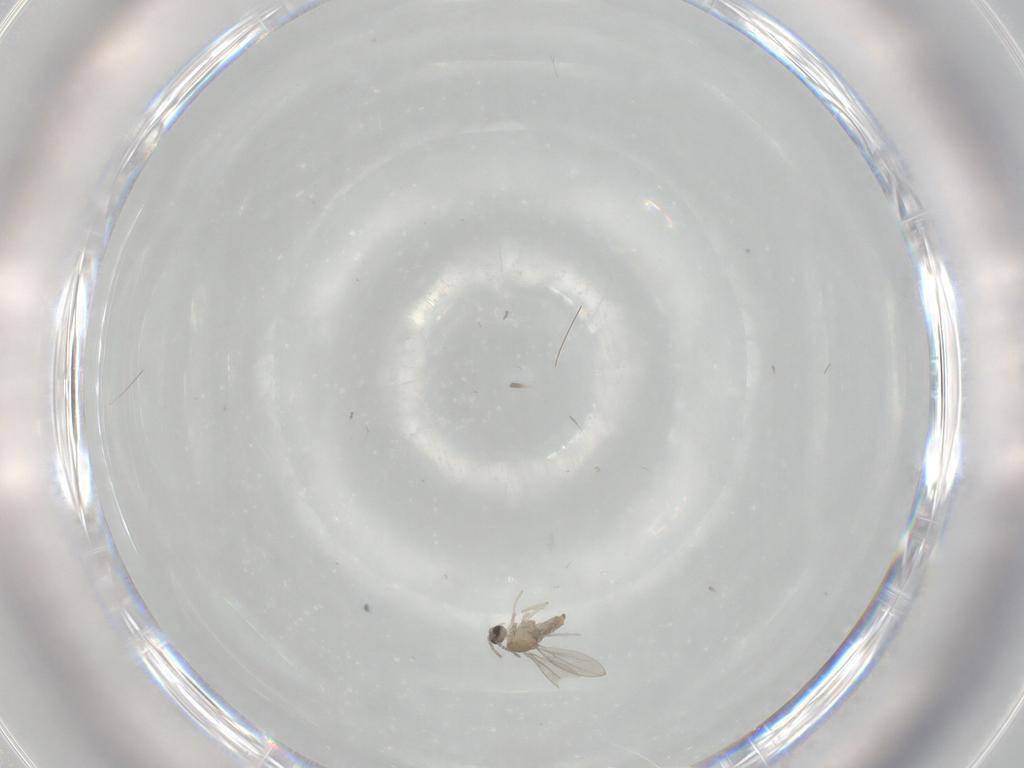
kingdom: Animalia
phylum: Arthropoda
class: Insecta
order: Diptera
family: Cecidomyiidae
